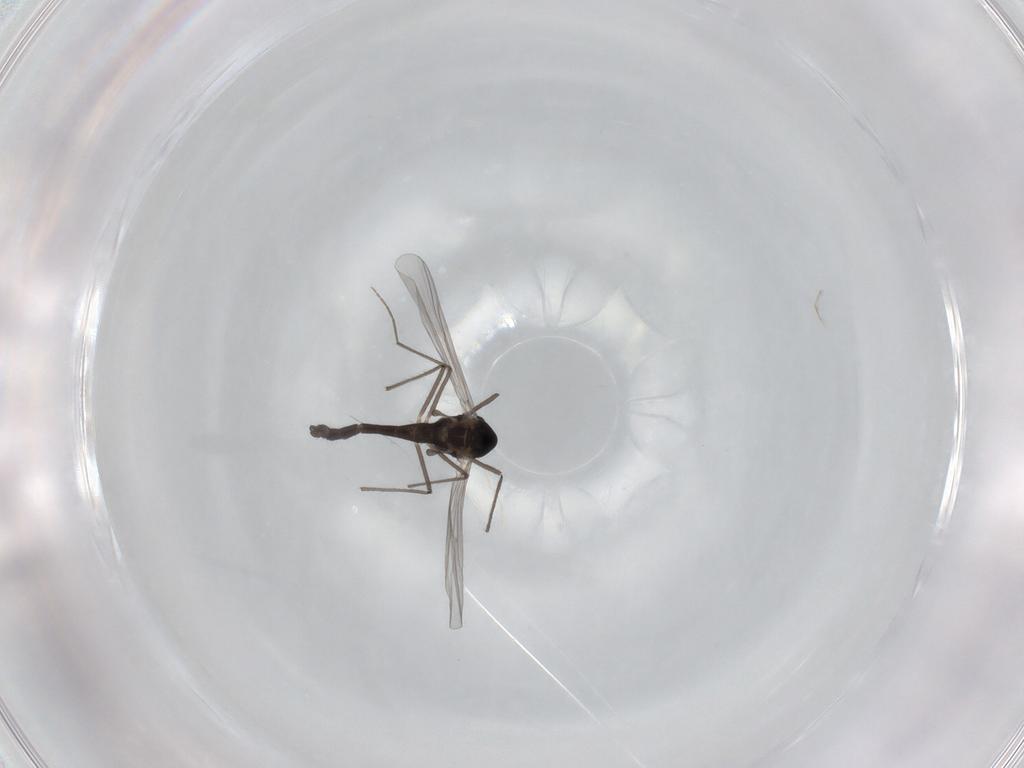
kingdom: Animalia
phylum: Arthropoda
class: Insecta
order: Diptera
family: Chironomidae
